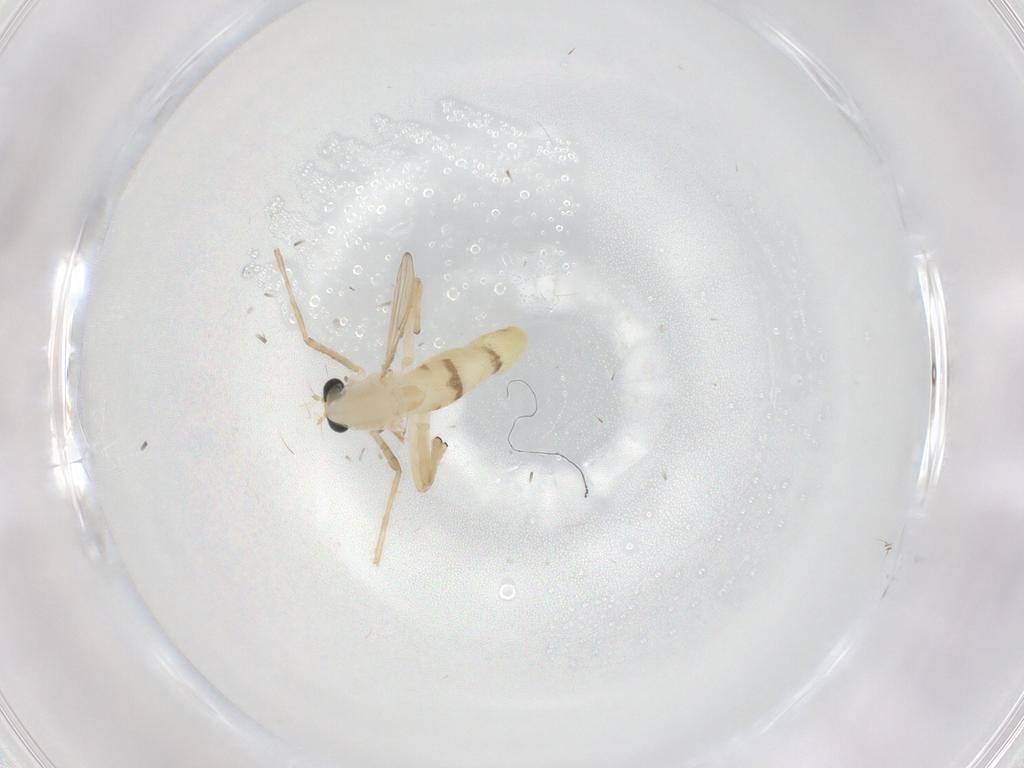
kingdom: Animalia
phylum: Arthropoda
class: Insecta
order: Diptera
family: Chironomidae
